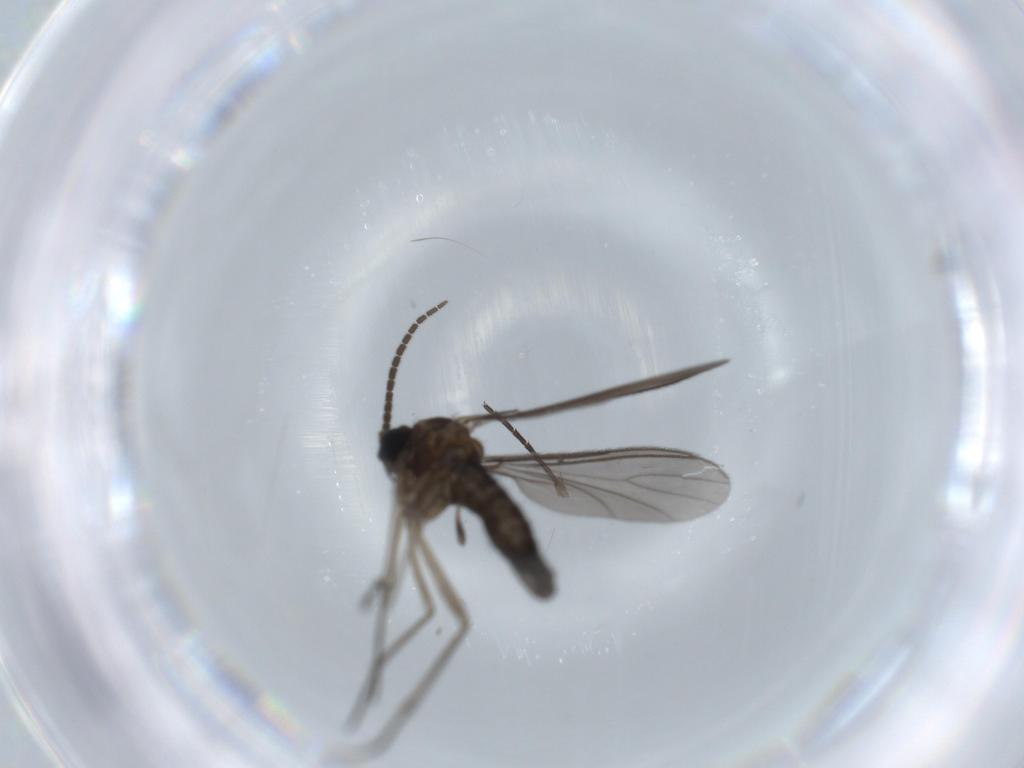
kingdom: Animalia
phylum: Arthropoda
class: Insecta
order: Diptera
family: Sciaridae
